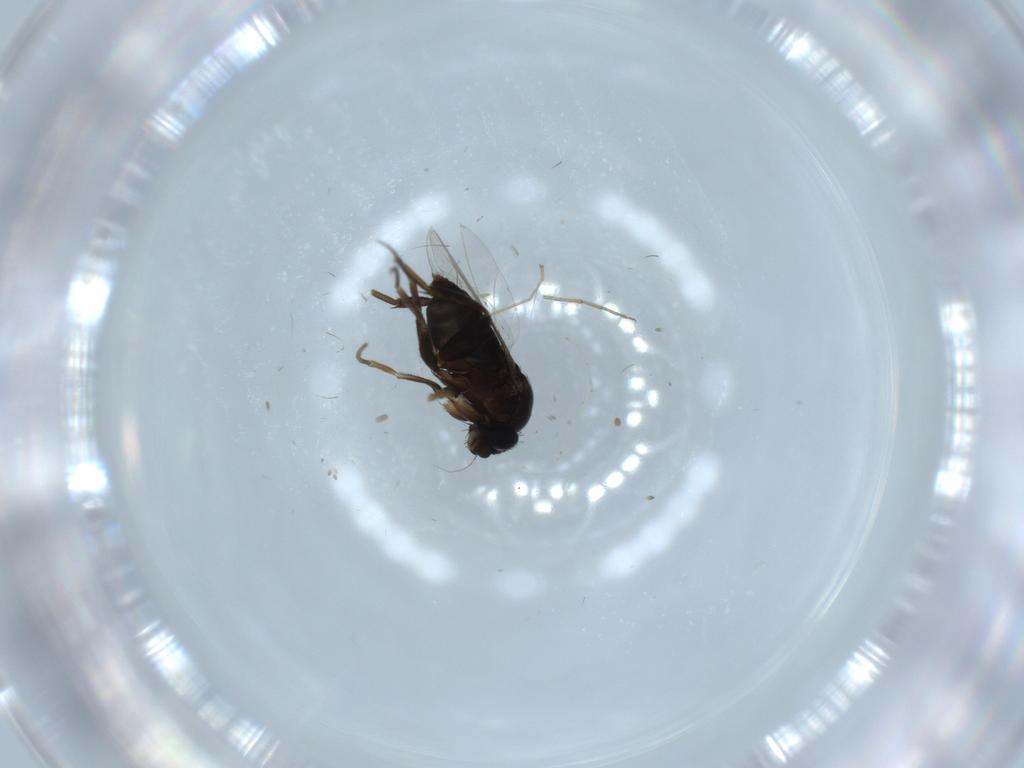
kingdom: Animalia
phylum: Arthropoda
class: Insecta
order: Diptera
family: Phoridae
